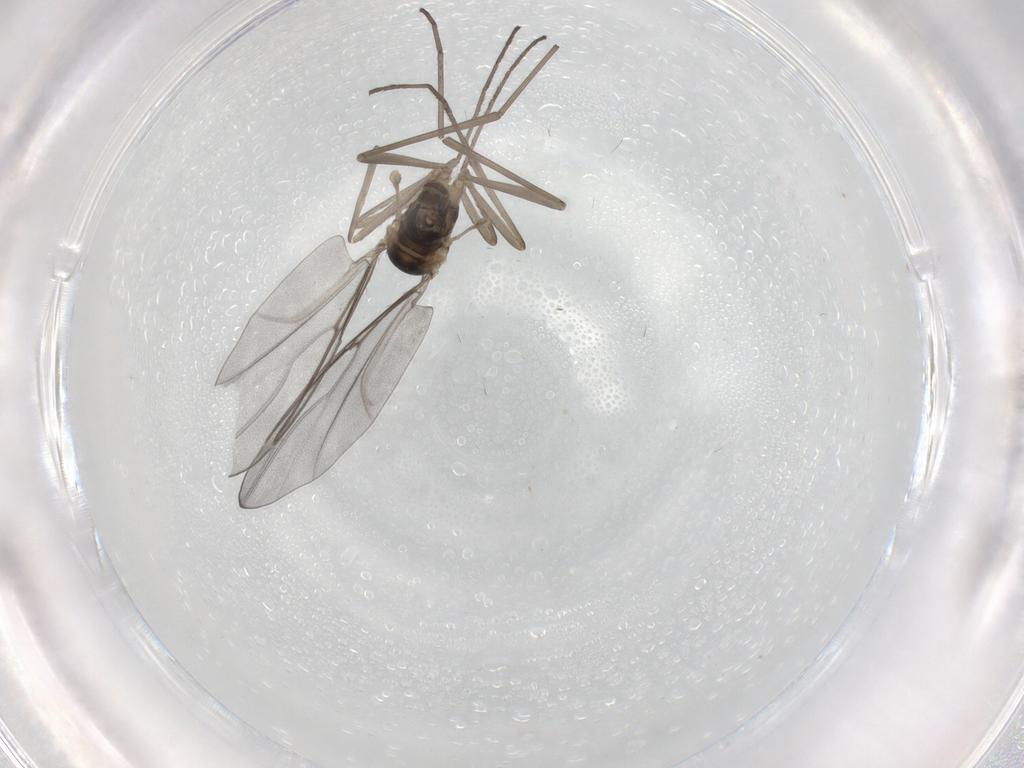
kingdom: Animalia
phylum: Arthropoda
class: Insecta
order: Diptera
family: Cecidomyiidae
